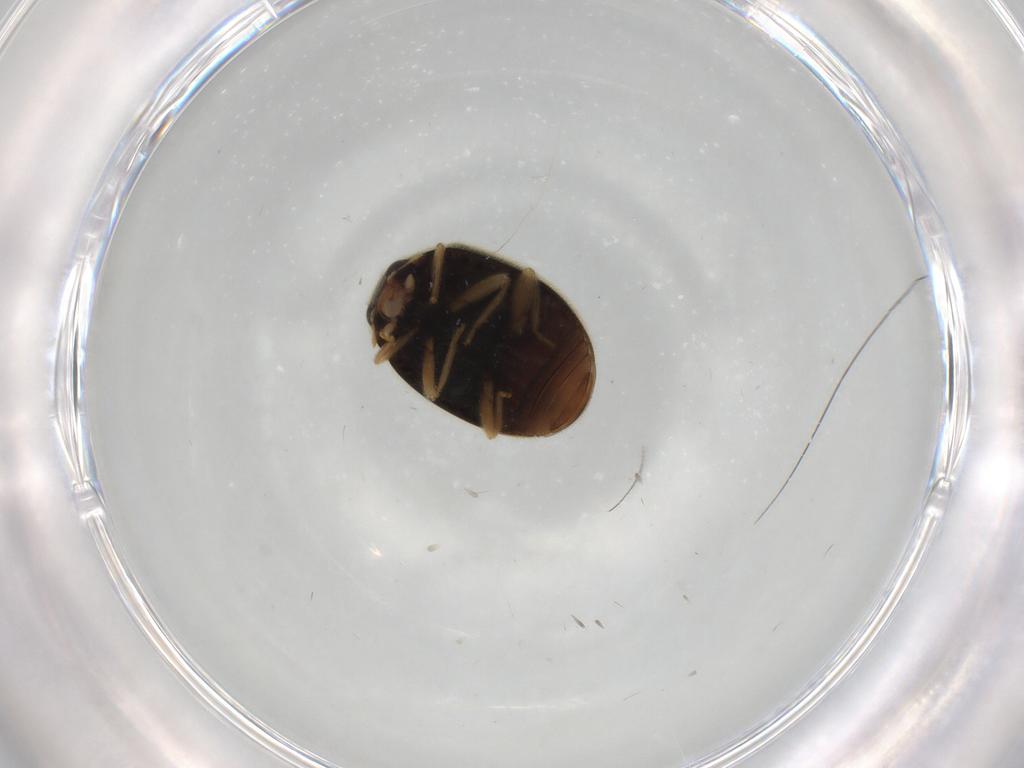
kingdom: Animalia
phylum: Arthropoda
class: Insecta
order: Coleoptera
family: Coccinellidae
